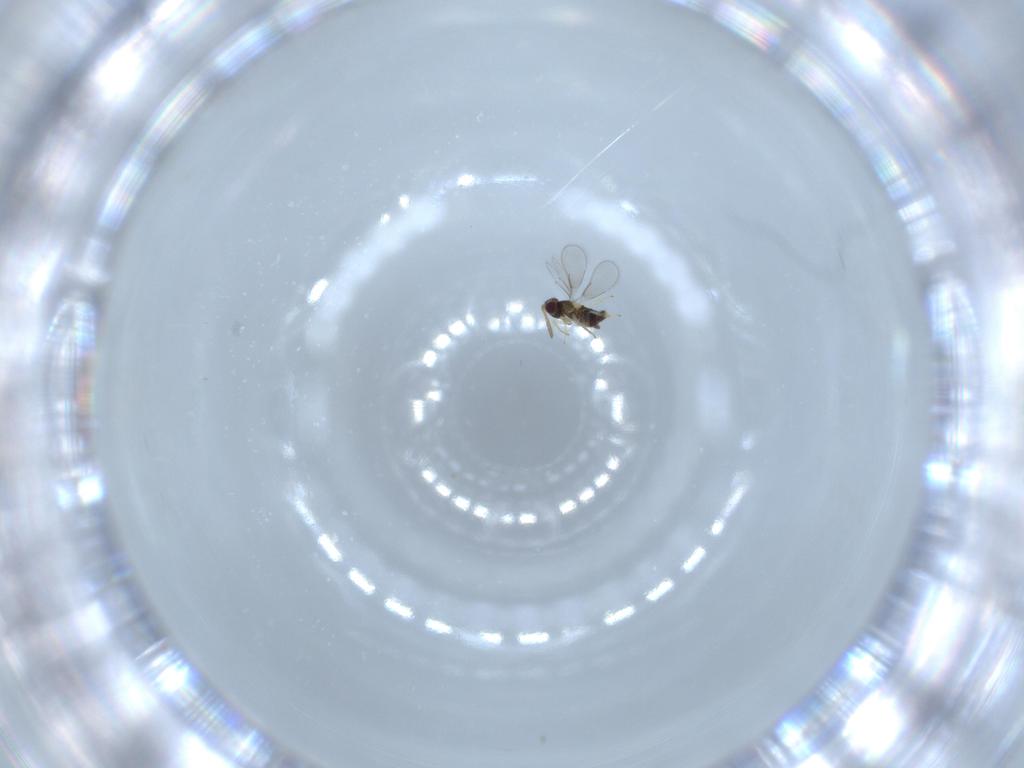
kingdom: Animalia
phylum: Arthropoda
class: Insecta
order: Hymenoptera
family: Aphelinidae
